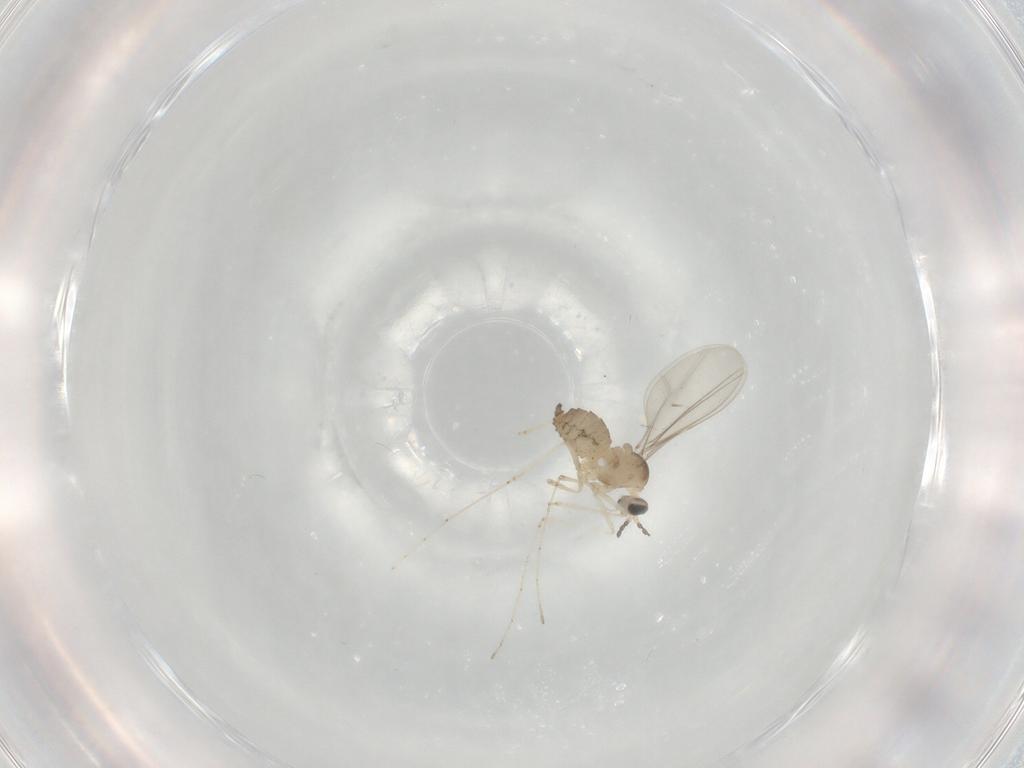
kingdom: Animalia
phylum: Arthropoda
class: Insecta
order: Diptera
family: Cecidomyiidae
